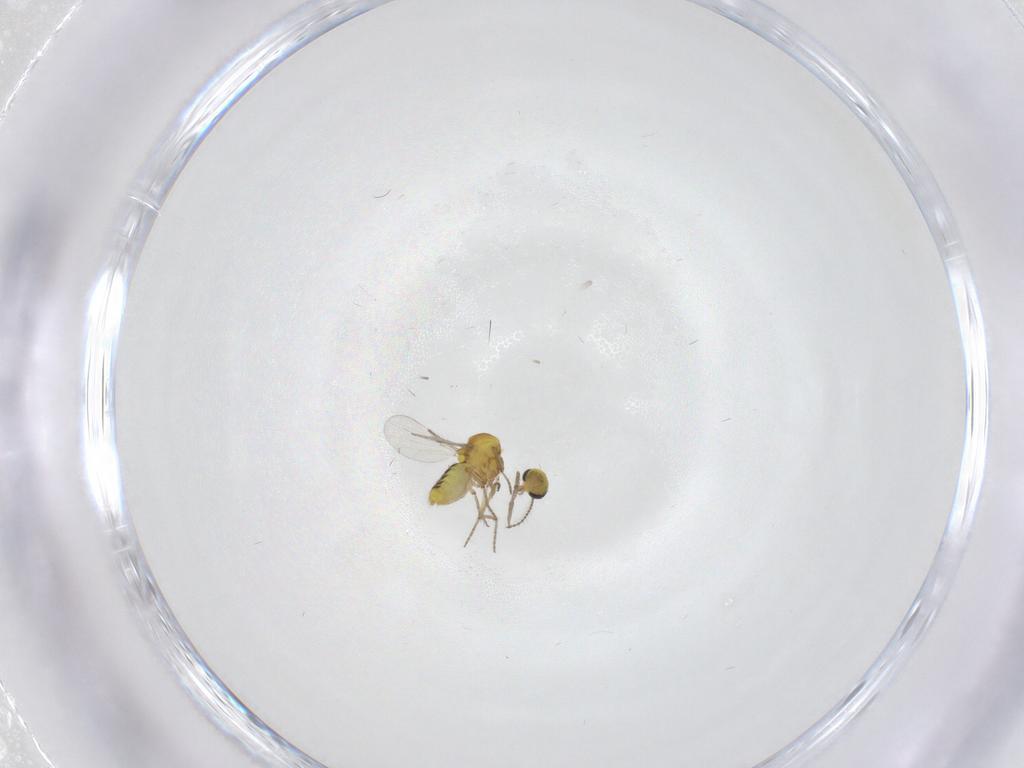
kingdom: Animalia
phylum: Arthropoda
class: Insecta
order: Diptera
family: Ceratopogonidae
